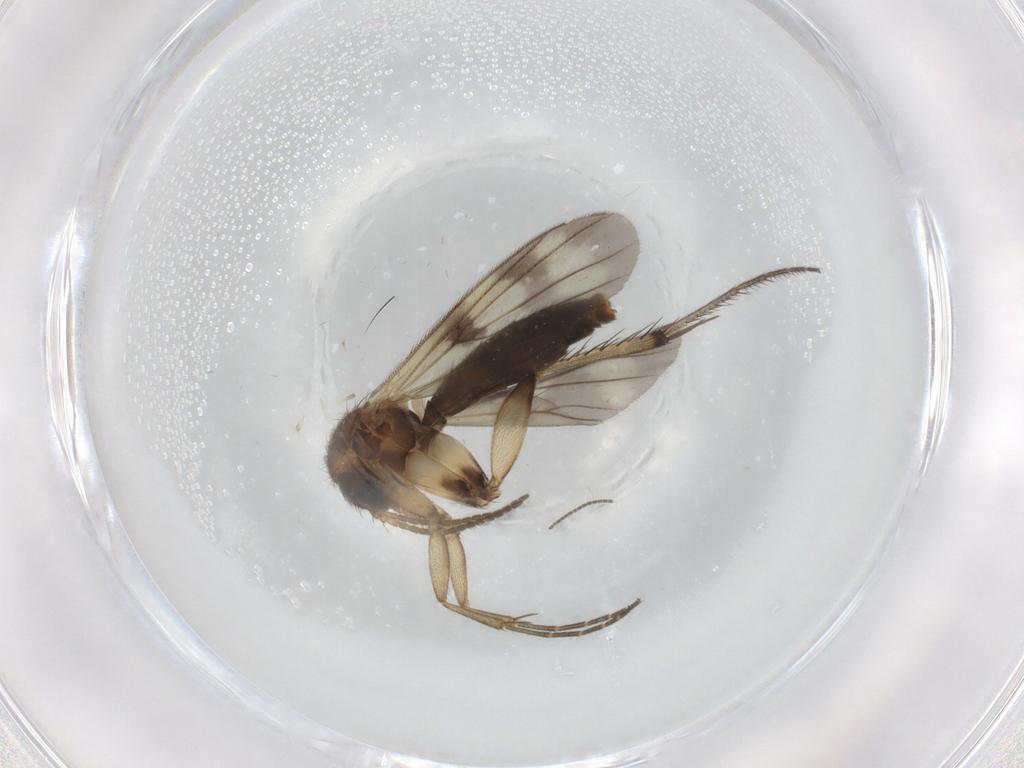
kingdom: Animalia
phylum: Arthropoda
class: Insecta
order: Diptera
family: Mycetophilidae
